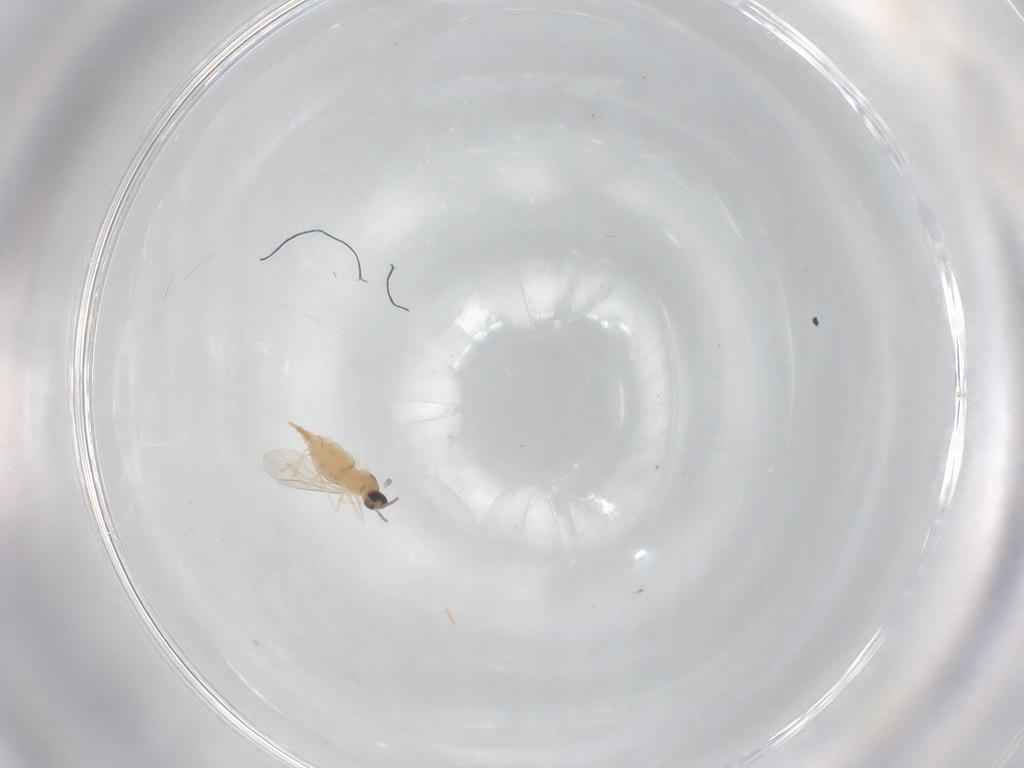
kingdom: Animalia
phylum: Arthropoda
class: Insecta
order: Diptera
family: Cecidomyiidae
